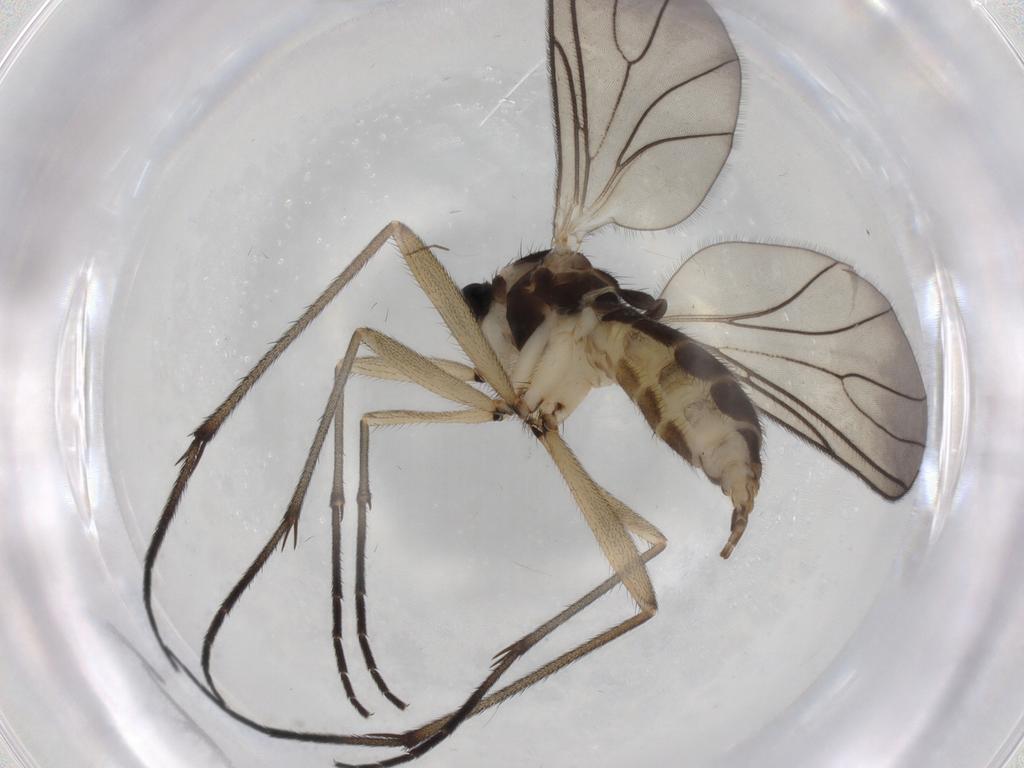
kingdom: Animalia
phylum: Arthropoda
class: Insecta
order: Diptera
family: Sciaridae
